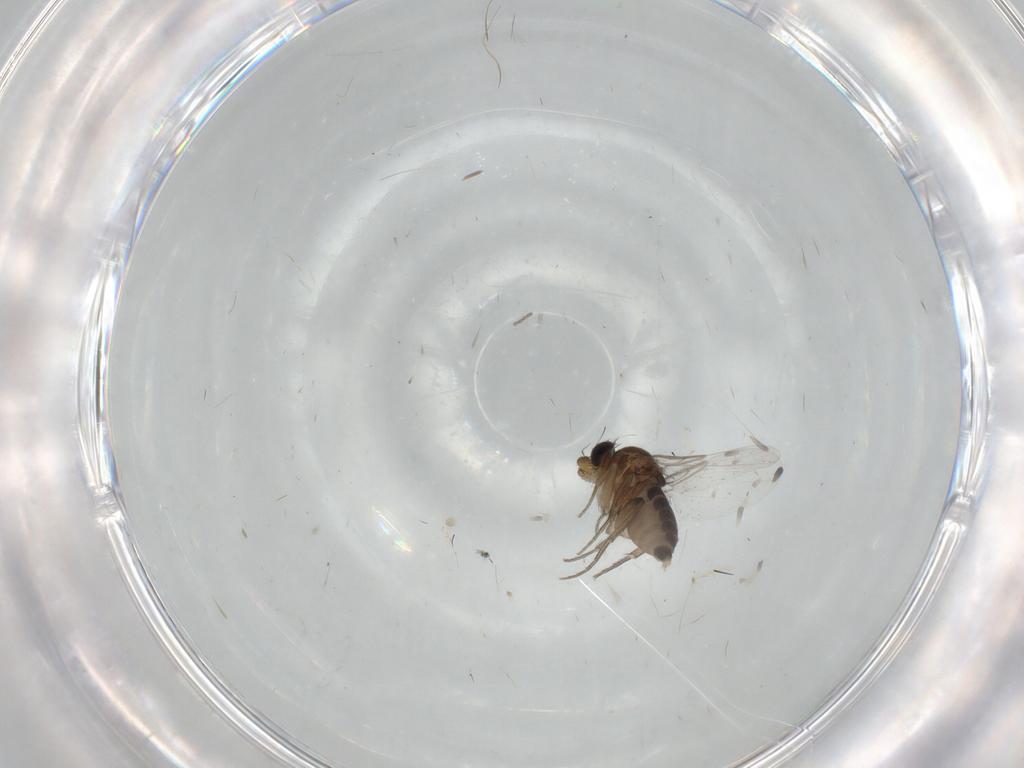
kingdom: Animalia
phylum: Arthropoda
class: Insecta
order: Diptera
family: Phoridae
